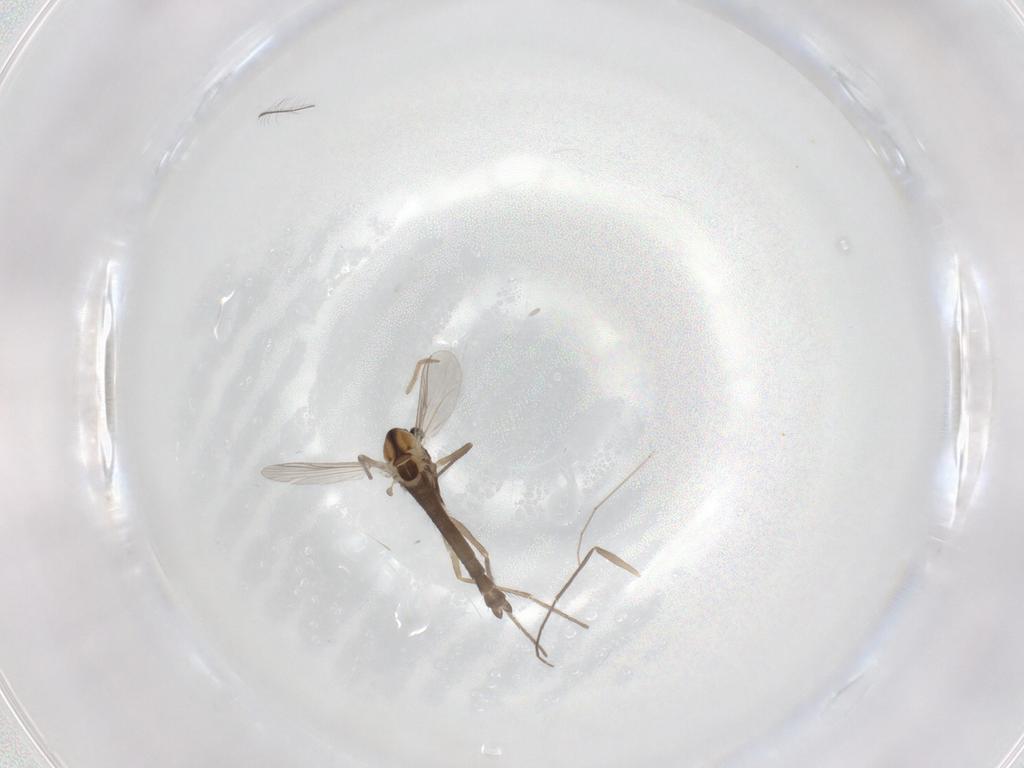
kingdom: Animalia
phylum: Arthropoda
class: Insecta
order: Diptera
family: Chironomidae
